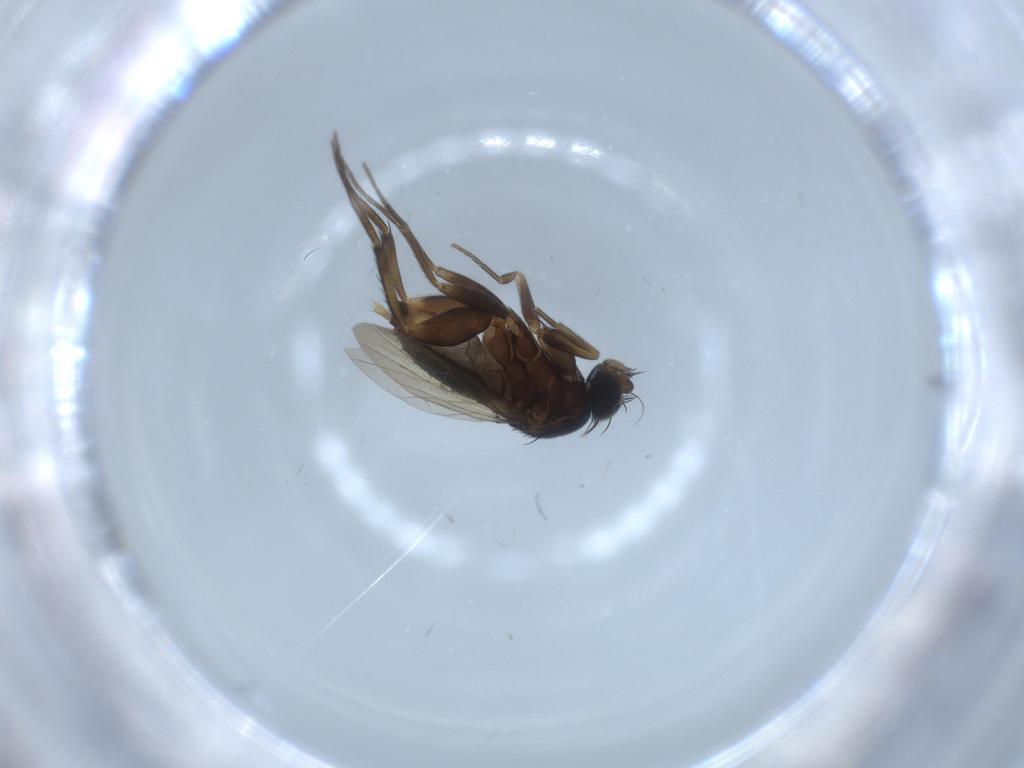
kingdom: Animalia
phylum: Arthropoda
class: Insecta
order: Diptera
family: Phoridae
